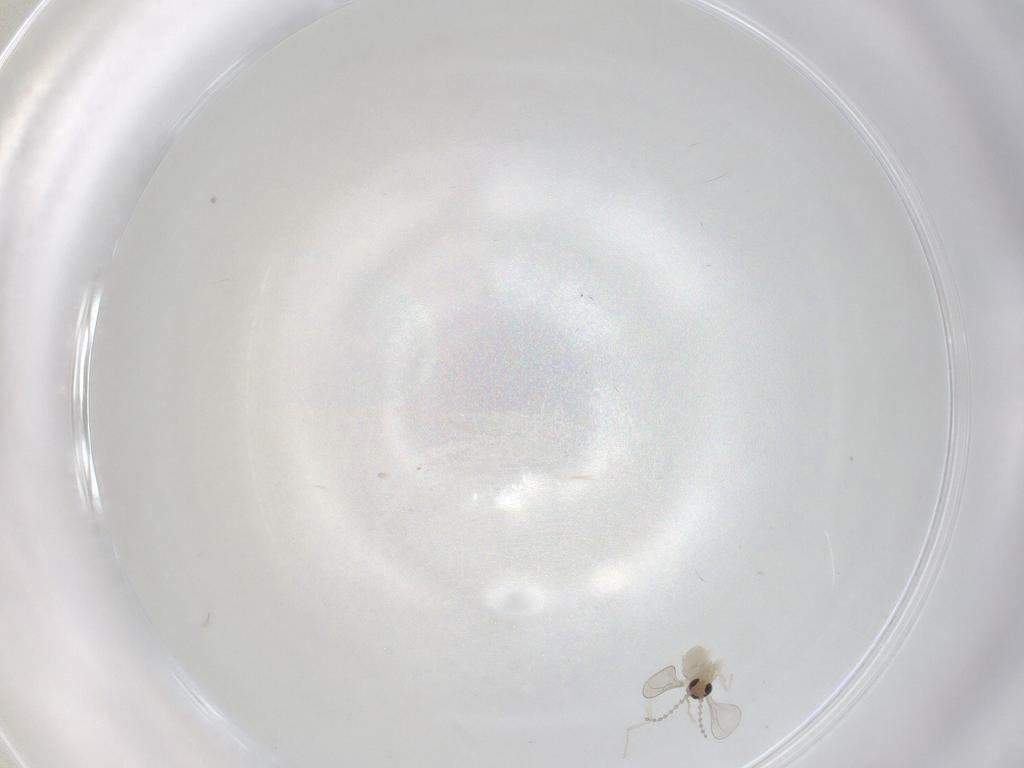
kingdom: Animalia
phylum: Arthropoda
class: Insecta
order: Diptera
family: Cecidomyiidae
